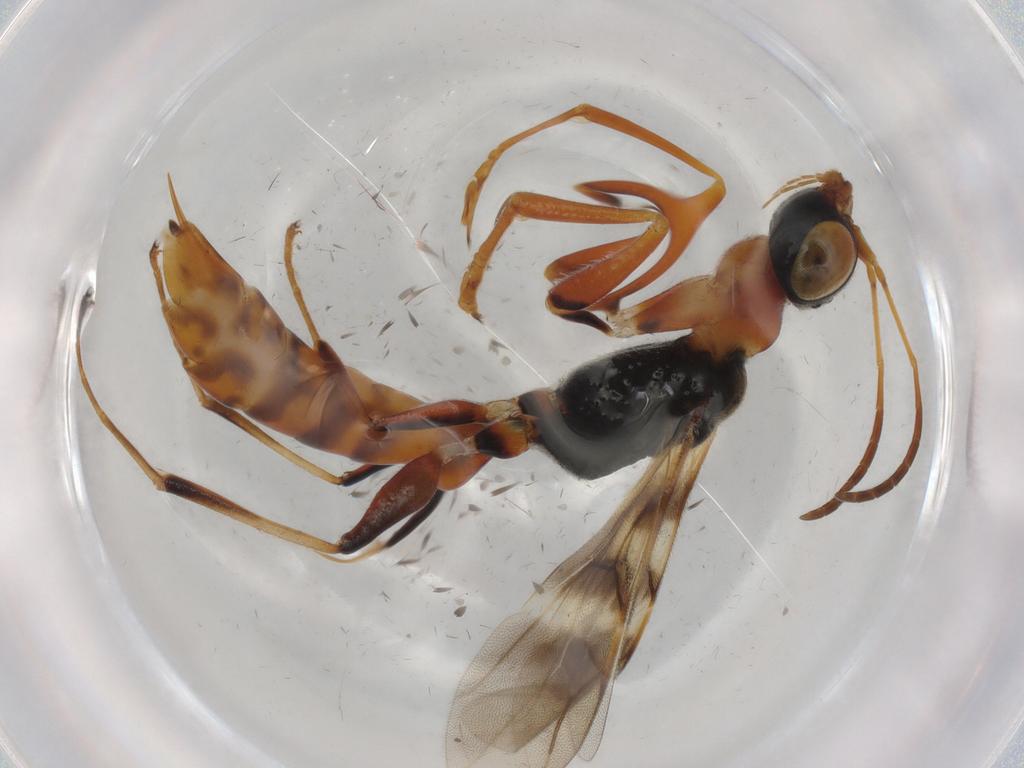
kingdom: Animalia
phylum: Arthropoda
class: Insecta
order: Hymenoptera
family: Dryinidae
